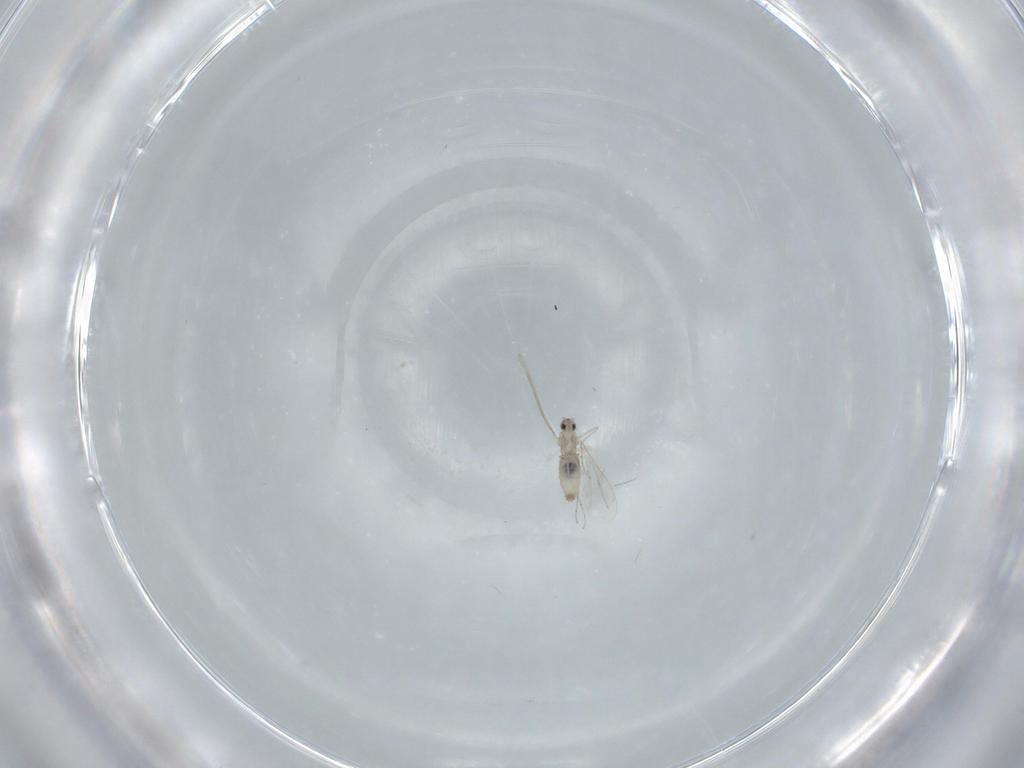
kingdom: Animalia
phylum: Arthropoda
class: Insecta
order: Diptera
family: Cecidomyiidae
